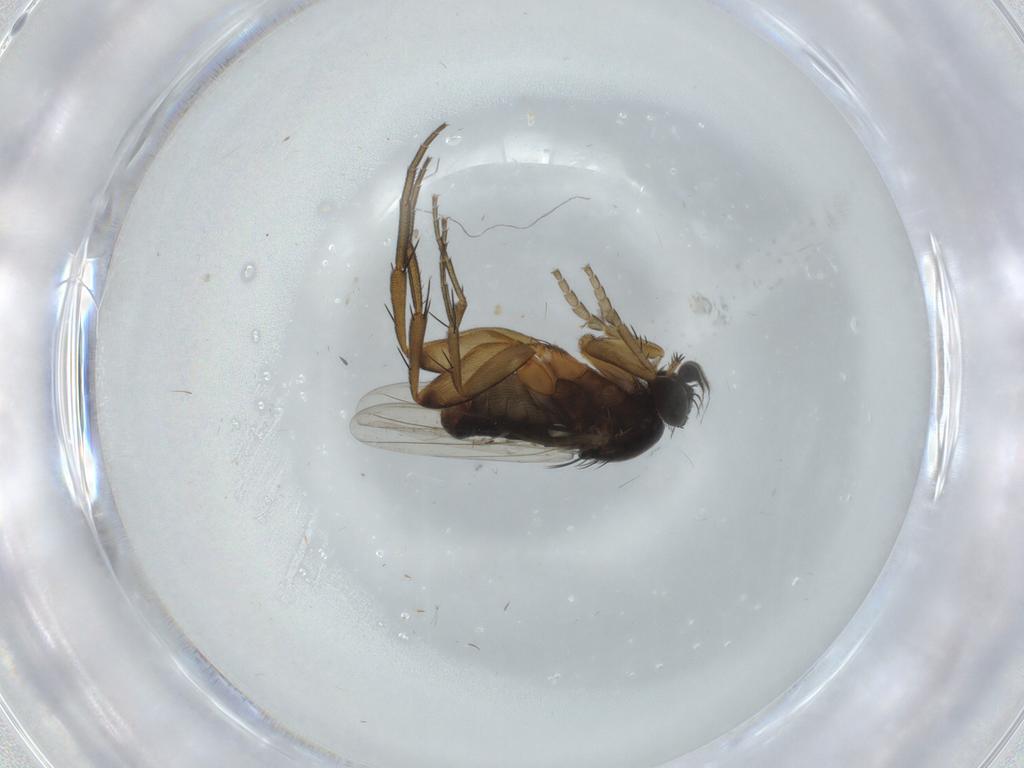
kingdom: Animalia
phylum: Arthropoda
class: Insecta
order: Diptera
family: Phoridae
